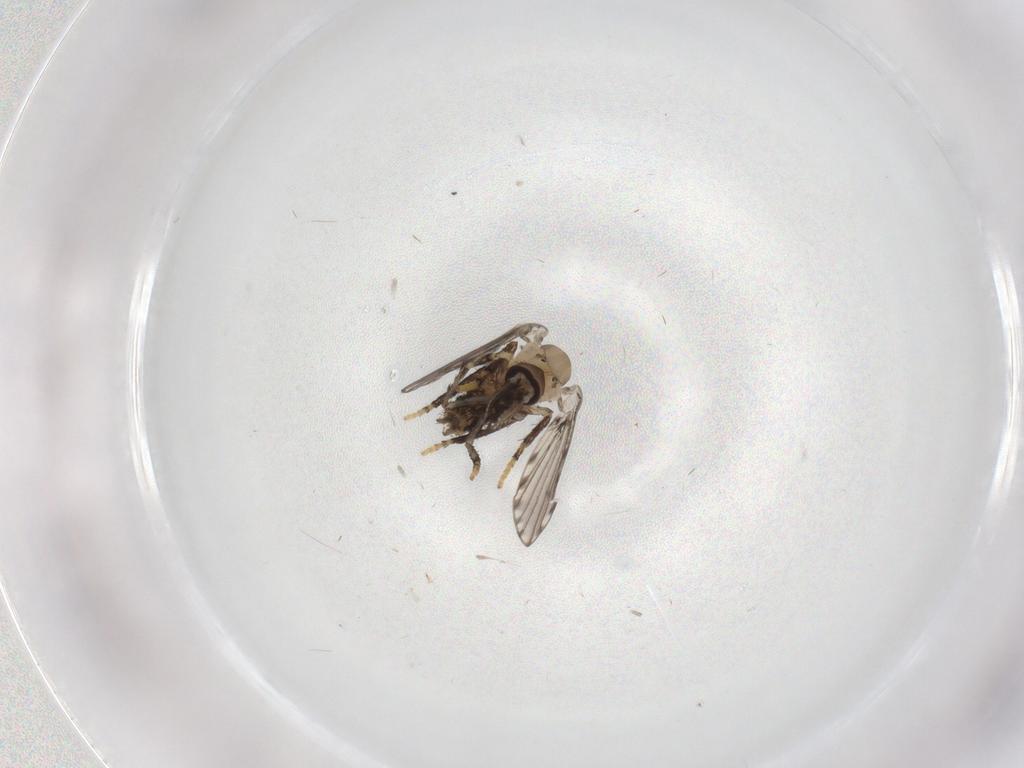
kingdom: Animalia
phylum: Arthropoda
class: Insecta
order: Diptera
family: Psychodidae
